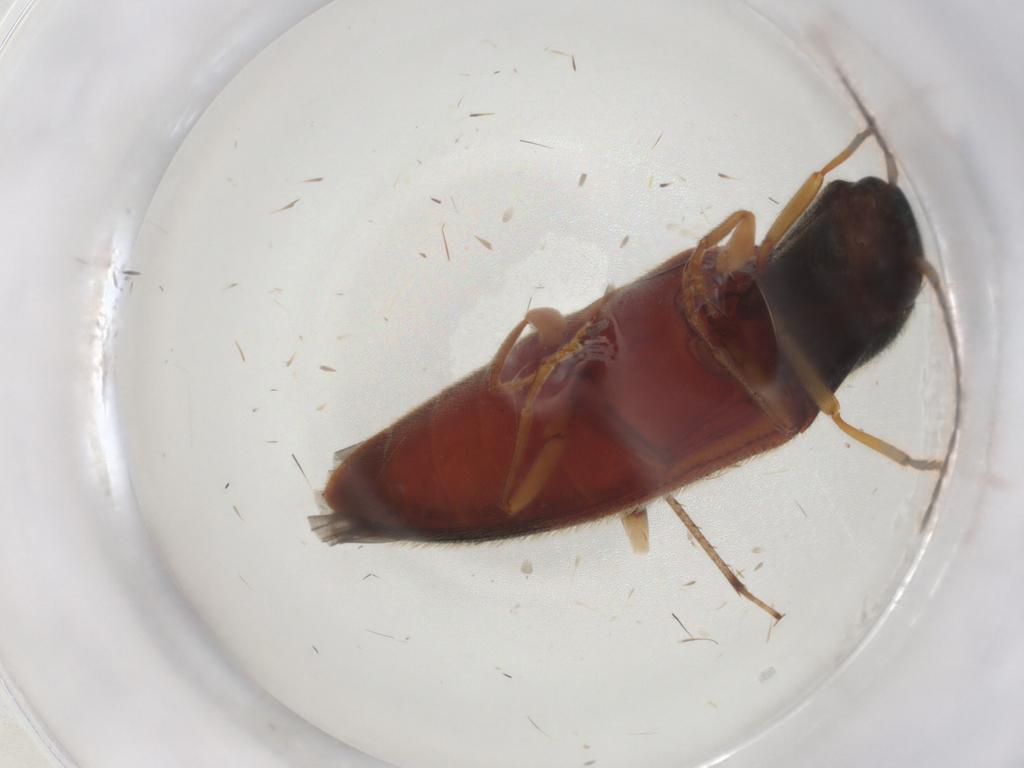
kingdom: Animalia
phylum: Arthropoda
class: Insecta
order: Coleoptera
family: Elateridae
